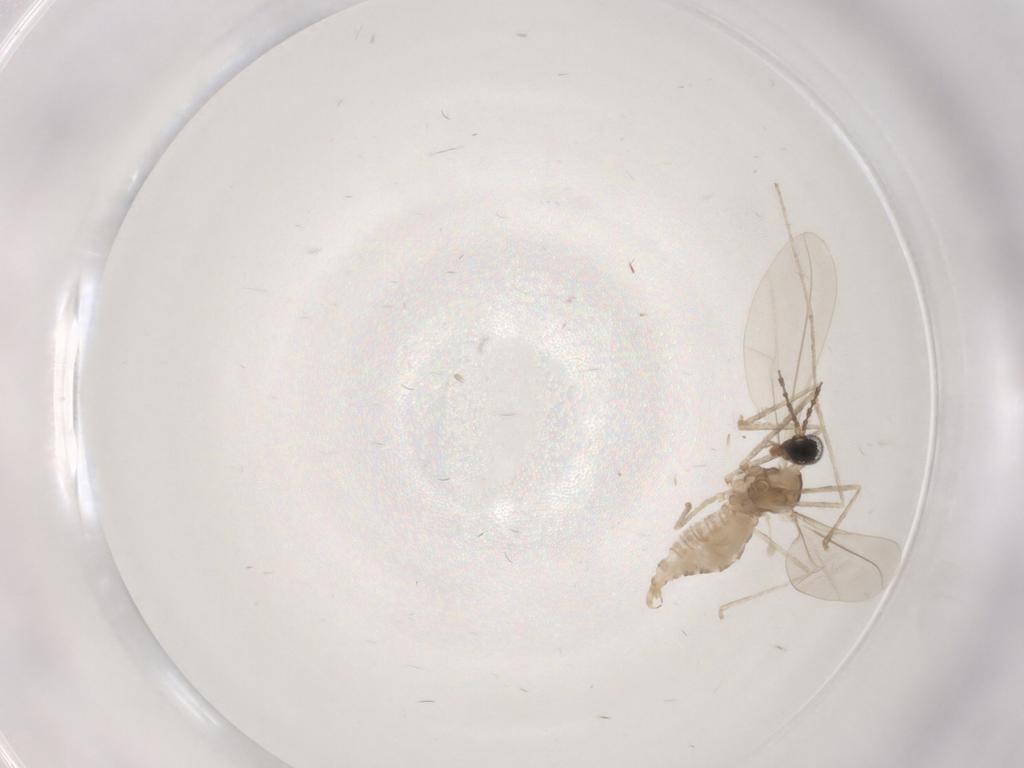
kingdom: Animalia
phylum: Arthropoda
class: Insecta
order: Diptera
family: Cecidomyiidae
